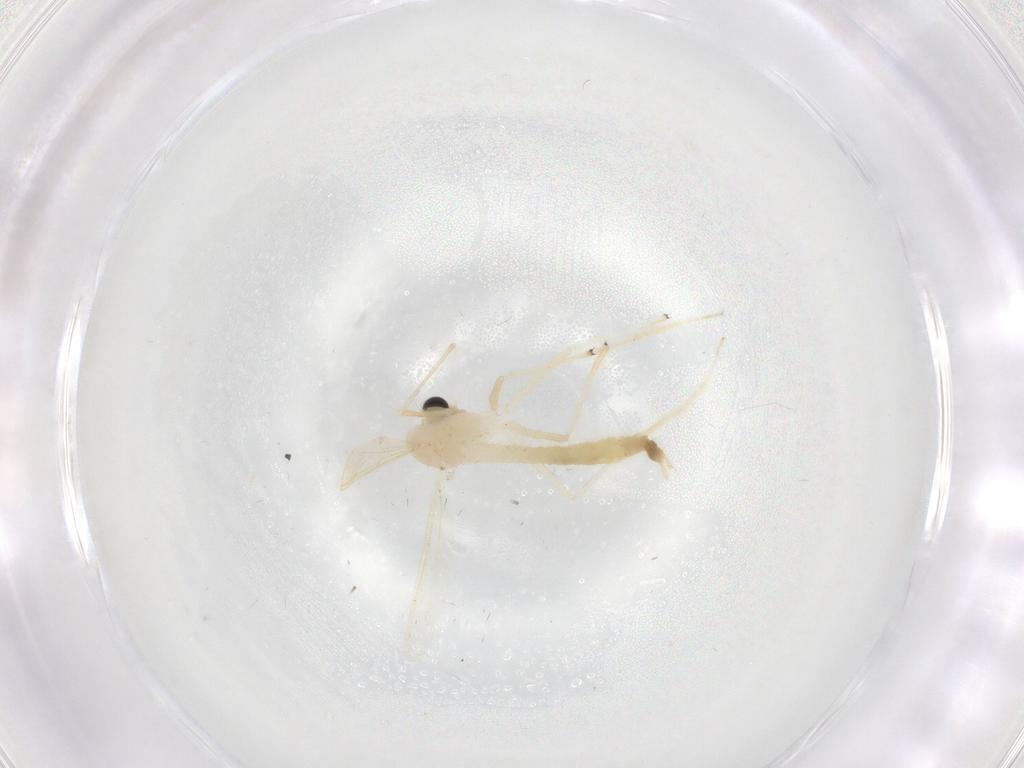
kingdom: Animalia
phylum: Arthropoda
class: Insecta
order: Diptera
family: Chironomidae
